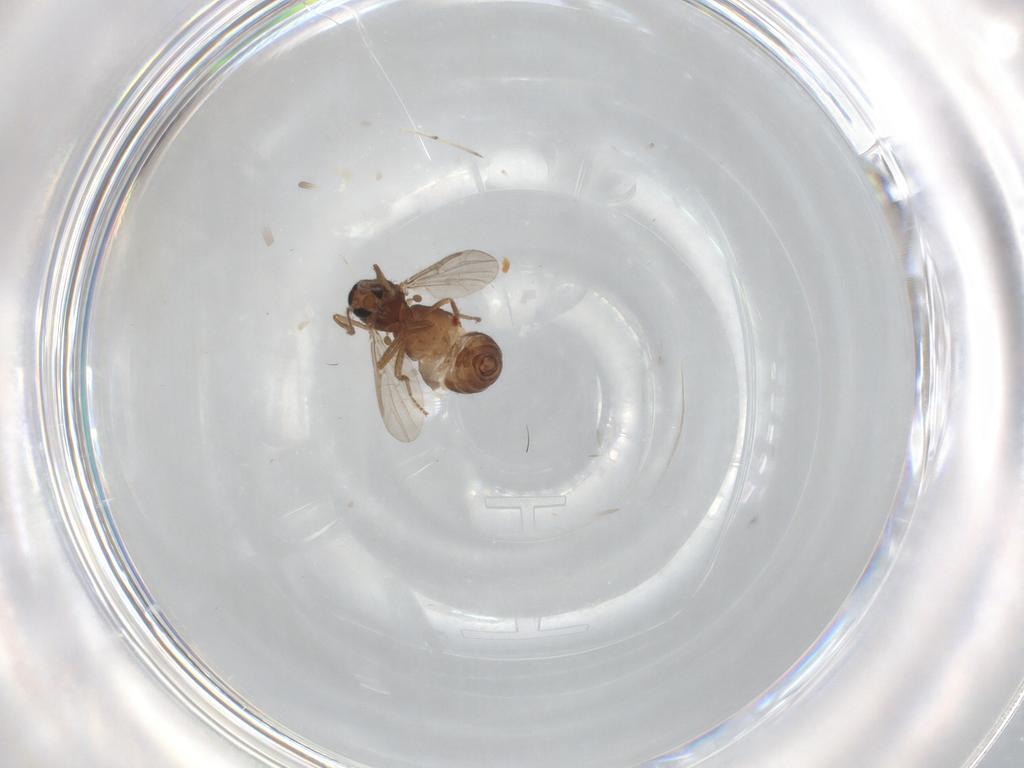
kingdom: Animalia
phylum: Arthropoda
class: Insecta
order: Diptera
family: Ceratopogonidae
